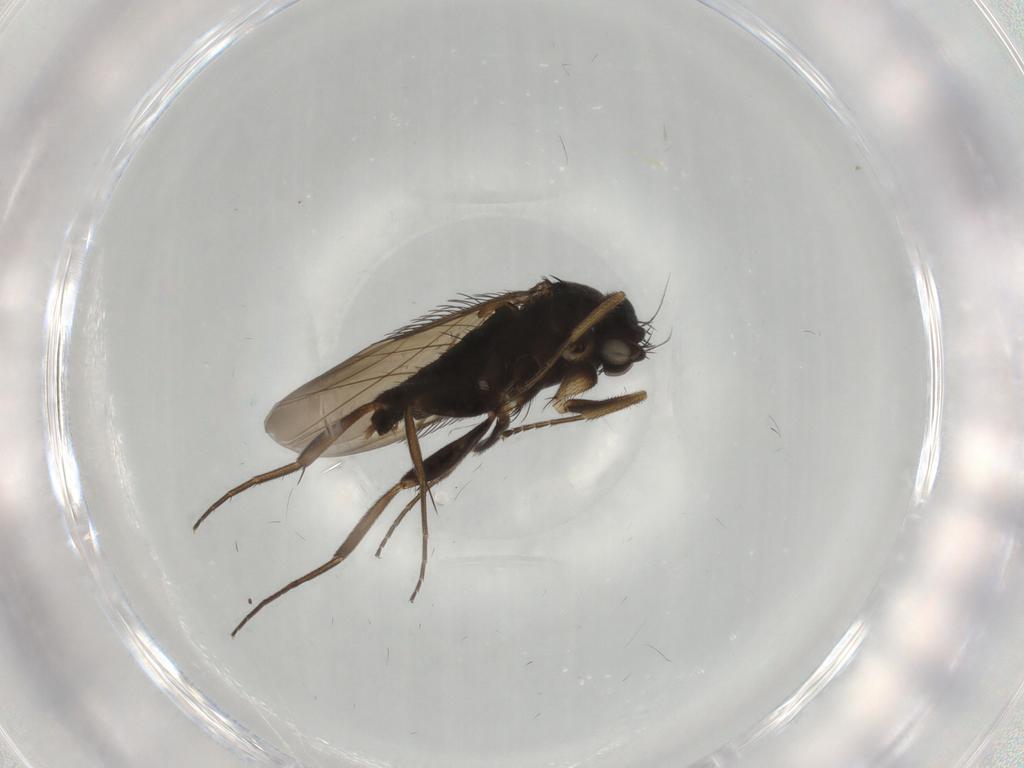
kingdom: Animalia
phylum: Arthropoda
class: Insecta
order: Diptera
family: Phoridae
